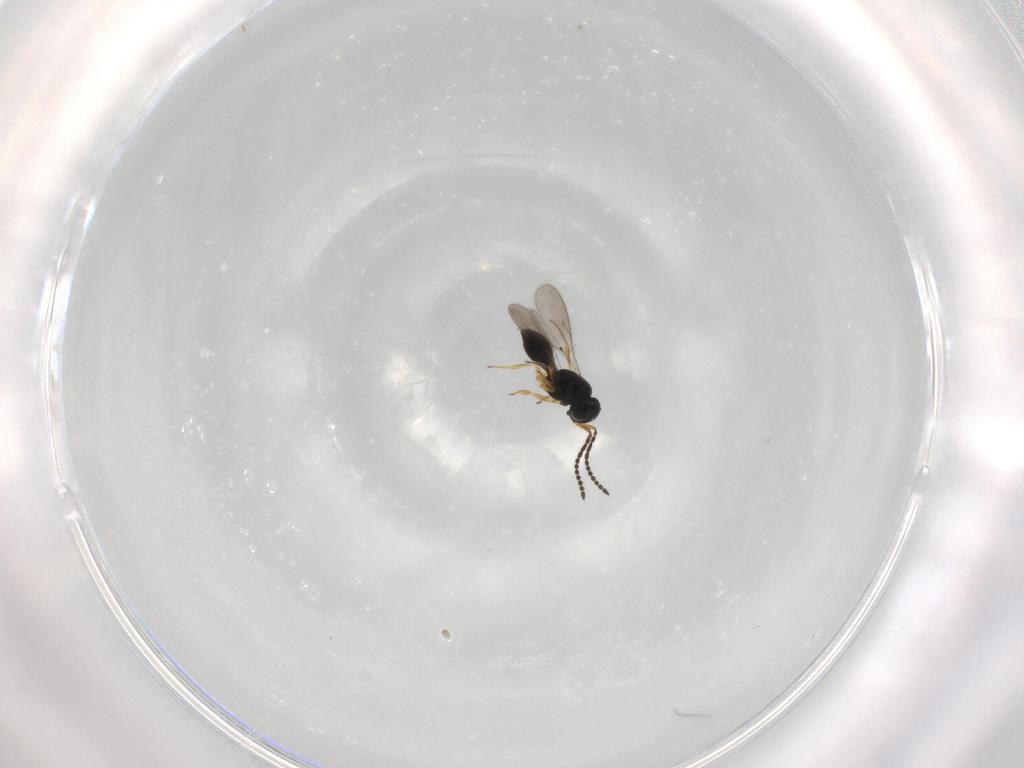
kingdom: Animalia
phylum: Arthropoda
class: Insecta
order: Hymenoptera
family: Scelionidae
